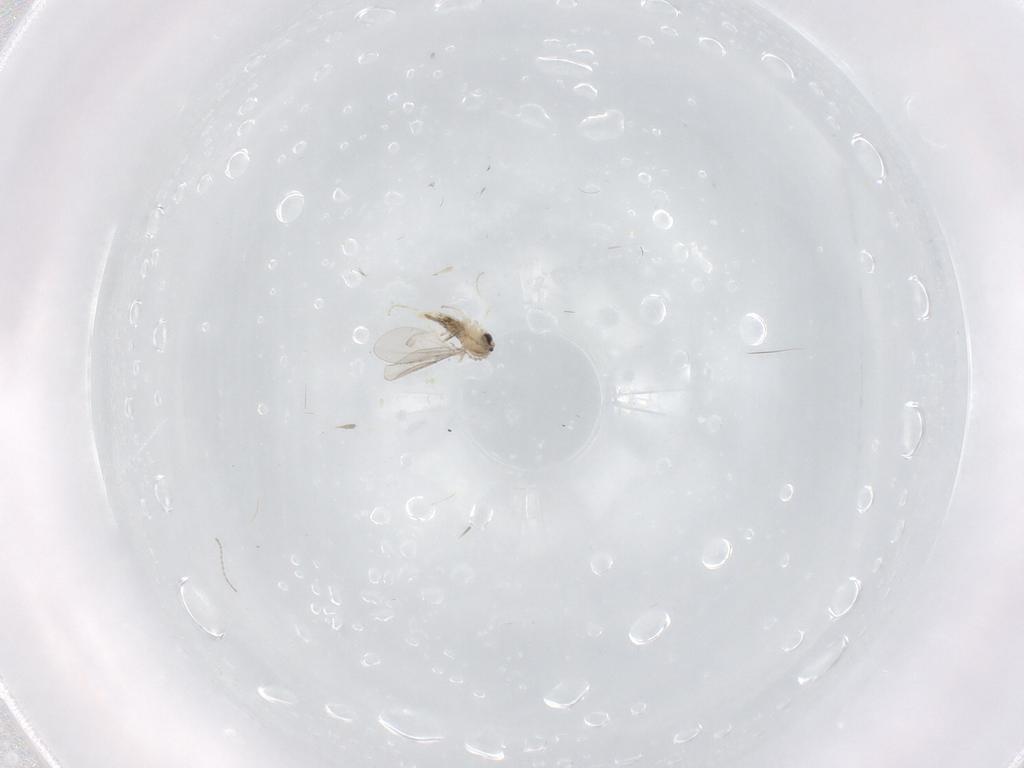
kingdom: Animalia
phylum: Arthropoda
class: Insecta
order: Diptera
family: Cecidomyiidae
